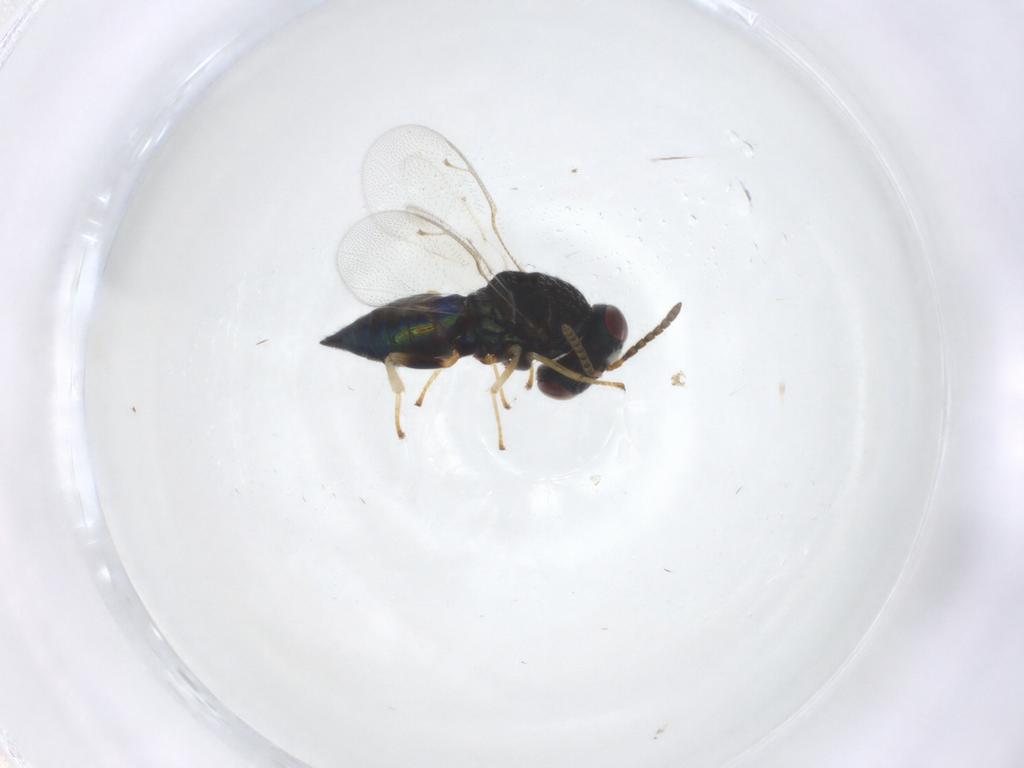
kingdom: Animalia
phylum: Arthropoda
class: Insecta
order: Hymenoptera
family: Pteromalidae
